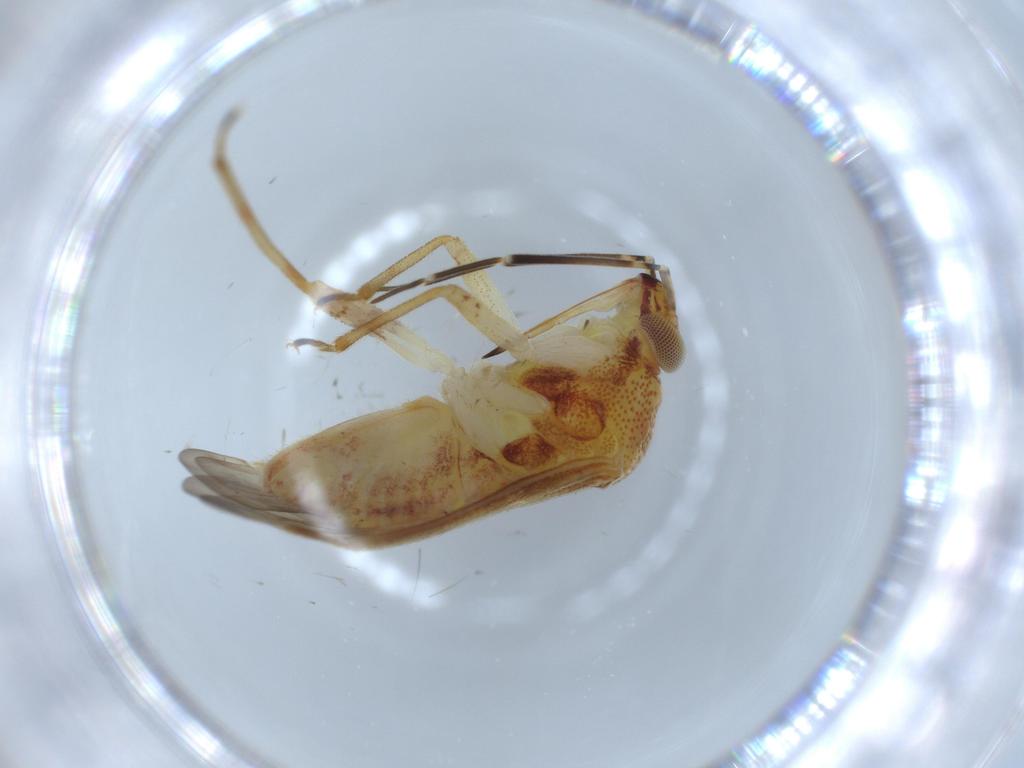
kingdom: Animalia
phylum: Arthropoda
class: Insecta
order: Hemiptera
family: Miridae
